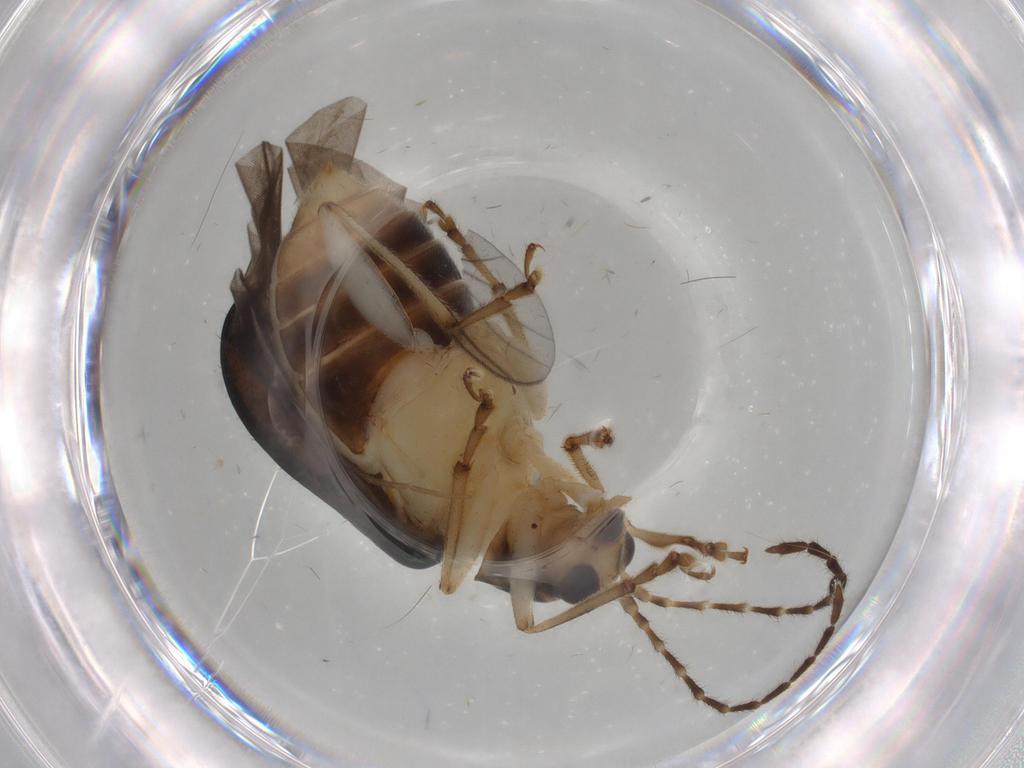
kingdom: Animalia
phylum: Arthropoda
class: Insecta
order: Coleoptera
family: Chrysomelidae
